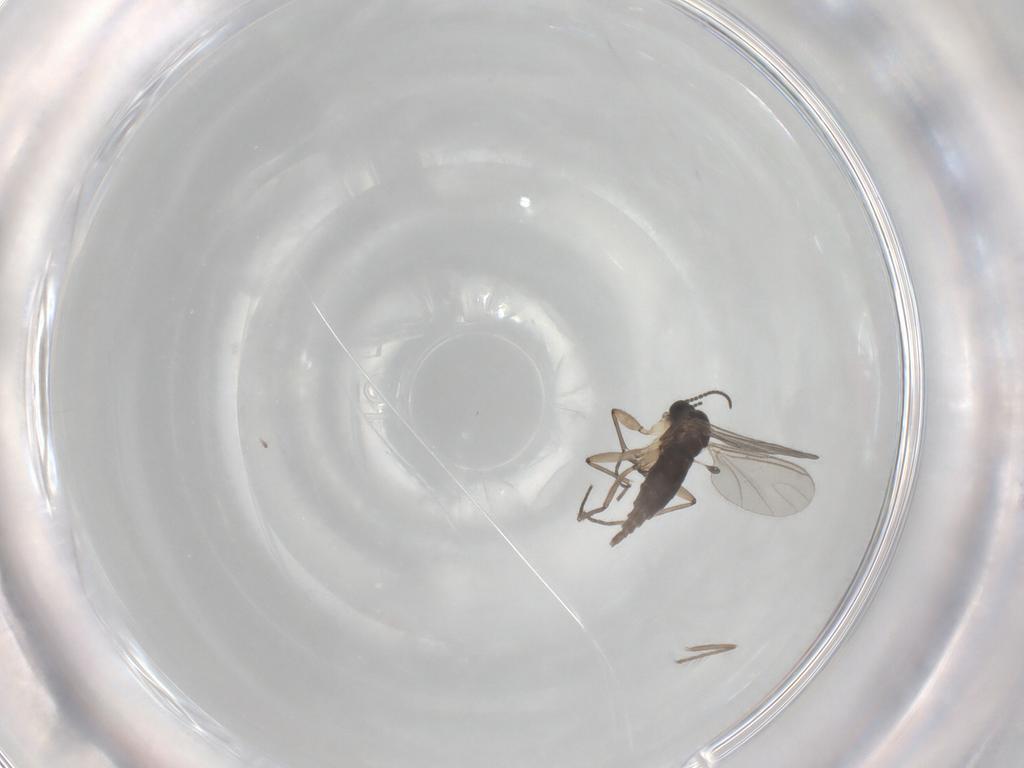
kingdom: Animalia
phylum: Arthropoda
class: Insecta
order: Diptera
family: Sciaridae
